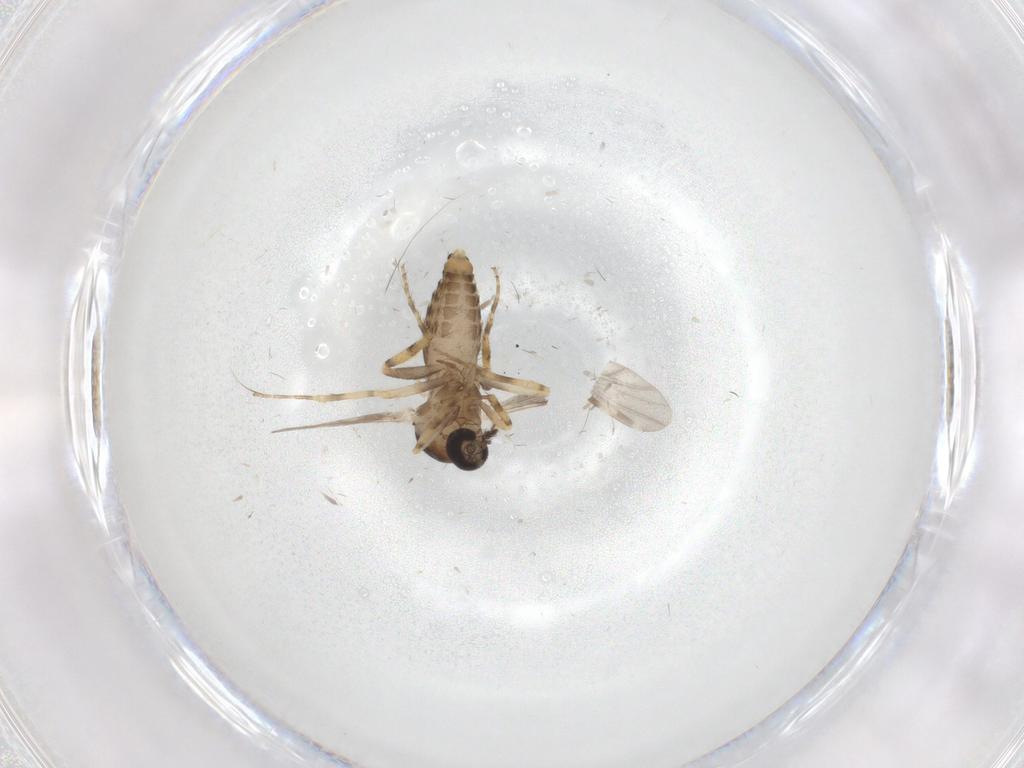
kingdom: Animalia
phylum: Arthropoda
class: Insecta
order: Diptera
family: Ceratopogonidae
